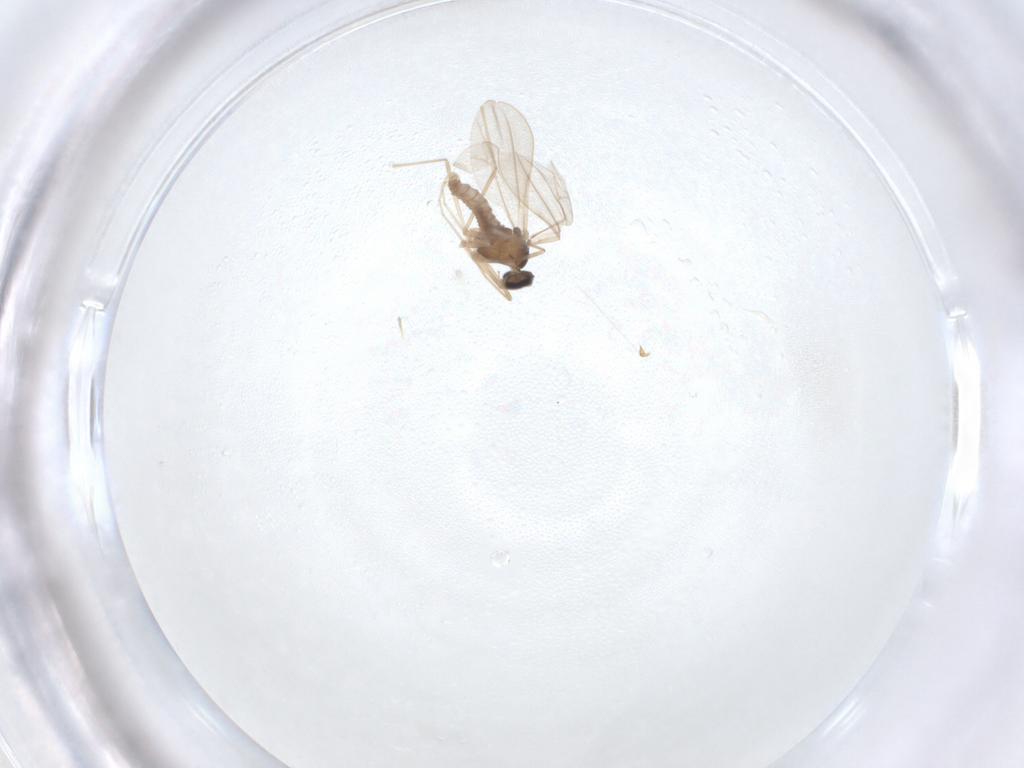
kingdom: Animalia
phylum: Arthropoda
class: Insecta
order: Diptera
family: Cecidomyiidae
